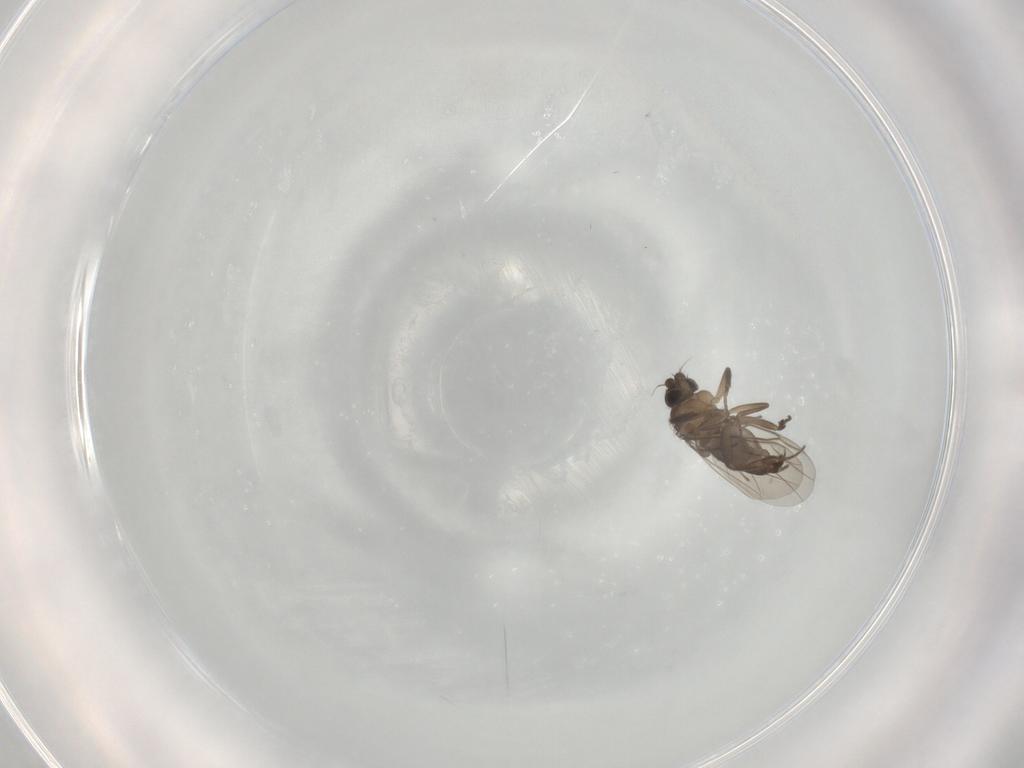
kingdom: Animalia
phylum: Arthropoda
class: Insecta
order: Diptera
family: Phoridae
